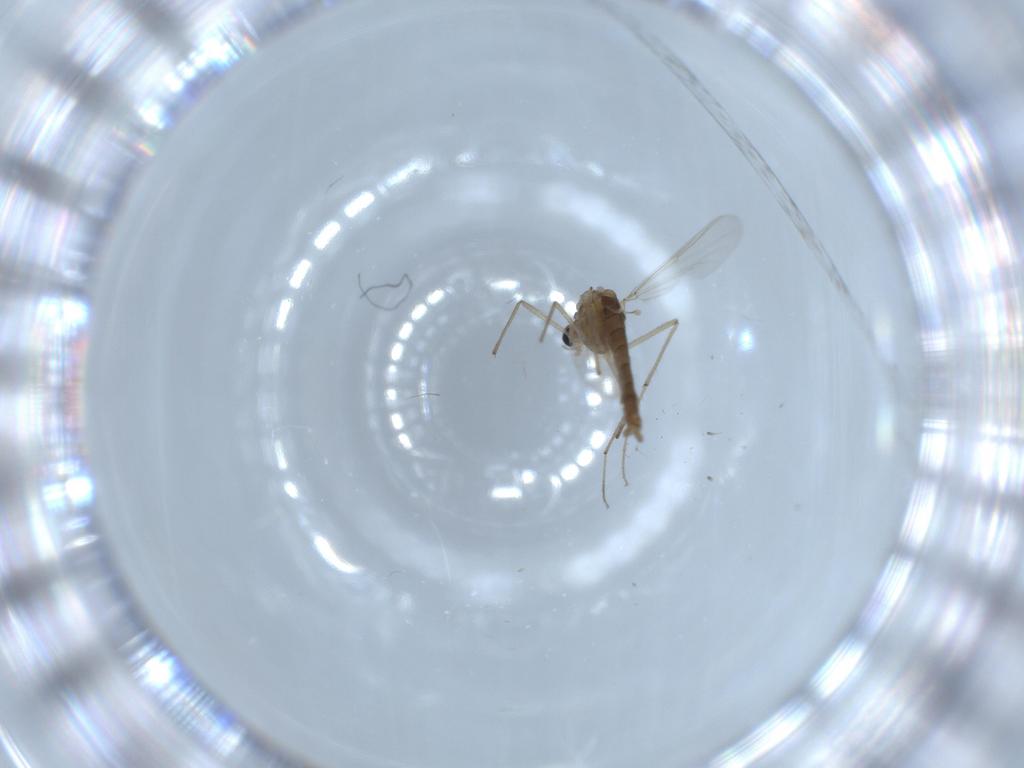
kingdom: Animalia
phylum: Arthropoda
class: Insecta
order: Diptera
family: Chironomidae
